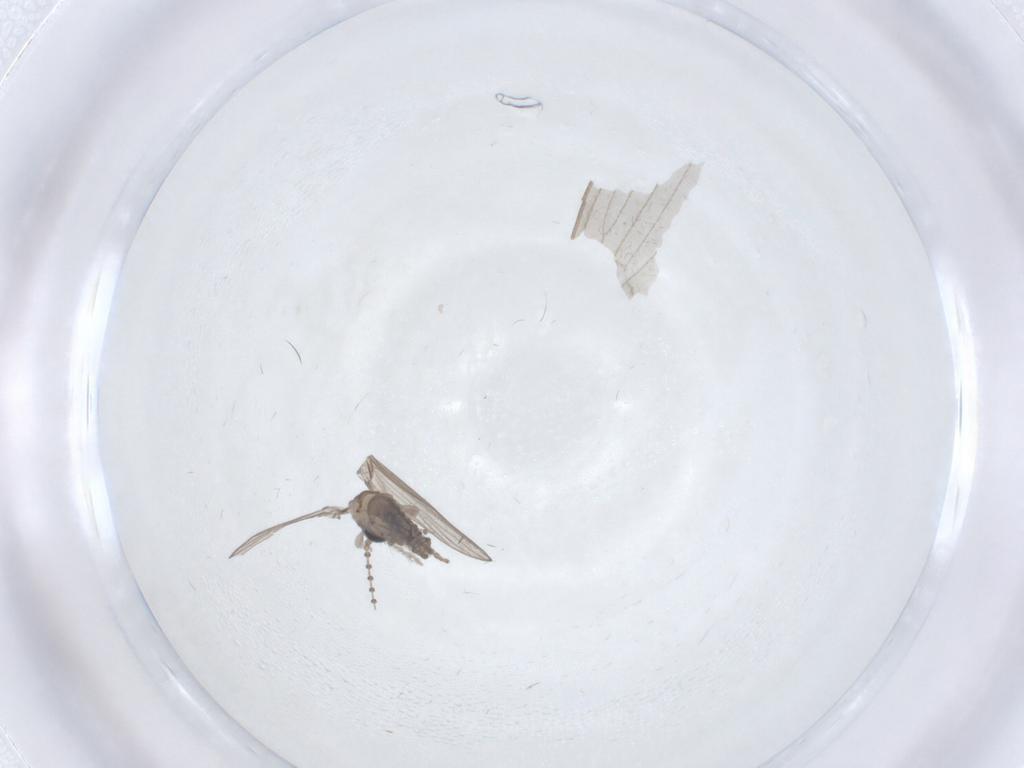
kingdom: Animalia
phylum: Arthropoda
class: Insecta
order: Diptera
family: Psychodidae
